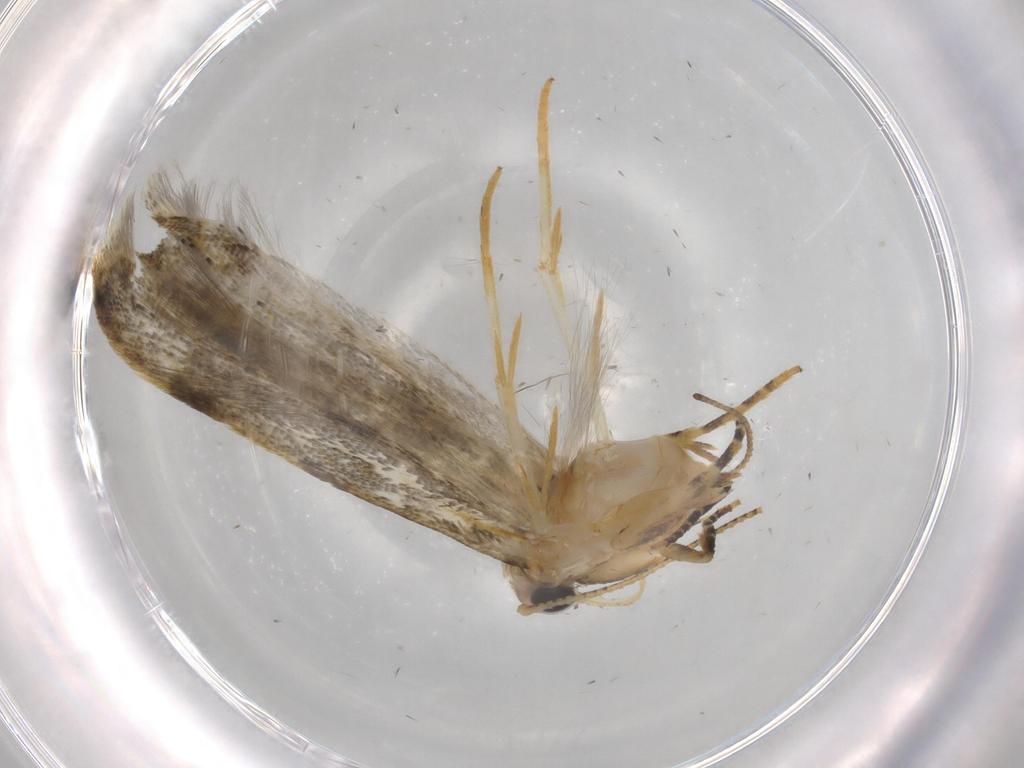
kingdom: Animalia
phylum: Arthropoda
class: Insecta
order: Lepidoptera
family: Gelechiidae
